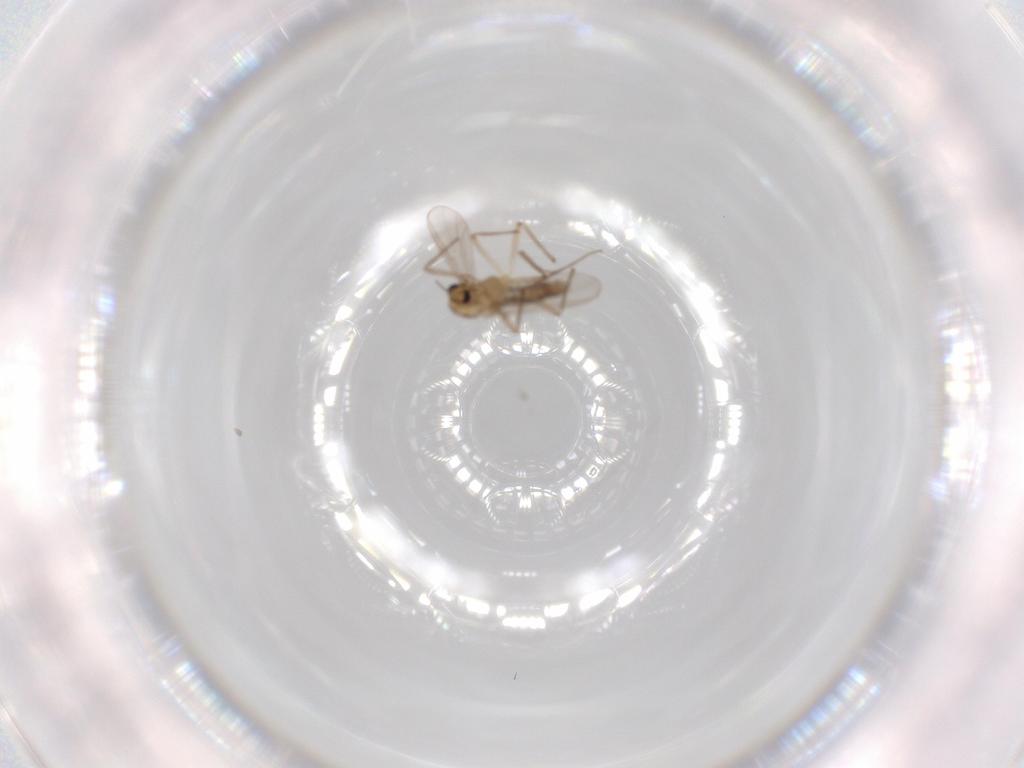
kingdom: Animalia
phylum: Arthropoda
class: Insecta
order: Diptera
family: Chironomidae
